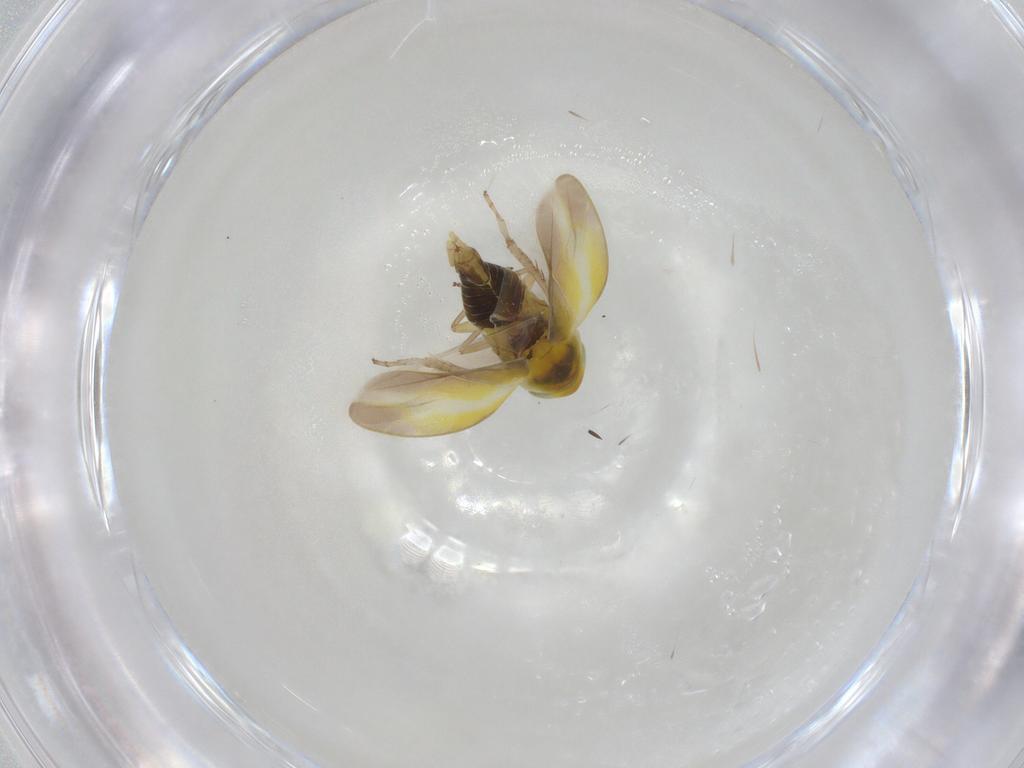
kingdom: Animalia
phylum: Arthropoda
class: Insecta
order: Hemiptera
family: Cicadellidae
